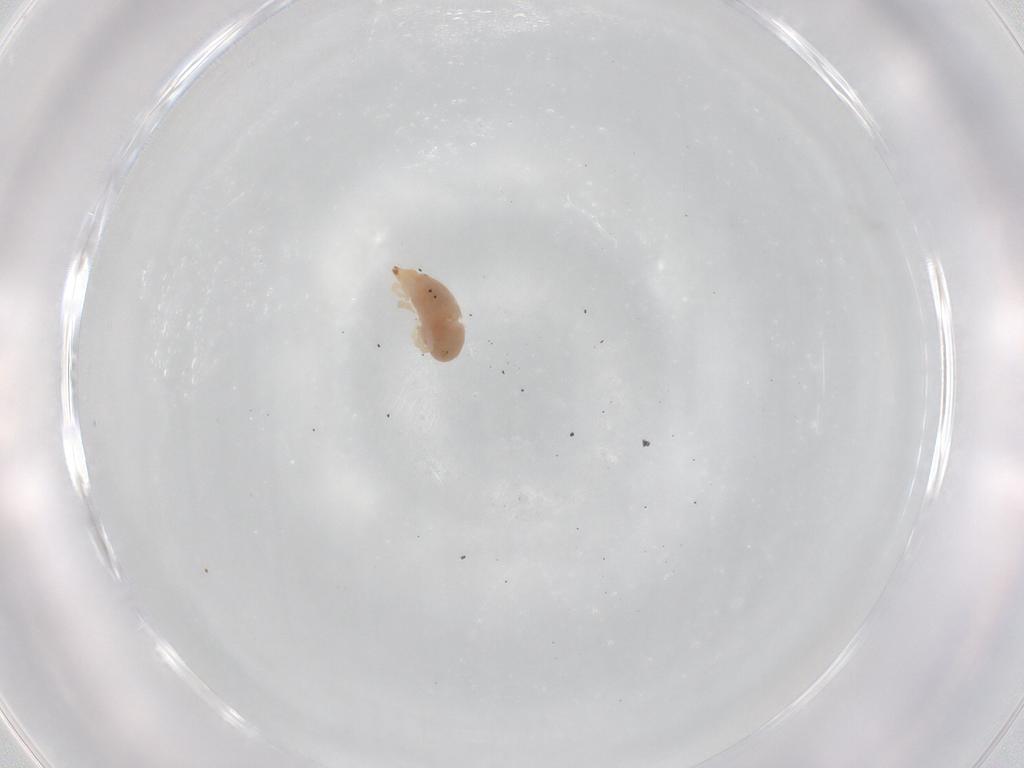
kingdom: Animalia
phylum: Arthropoda
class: Arachnida
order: Trombidiformes
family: Bdellidae
